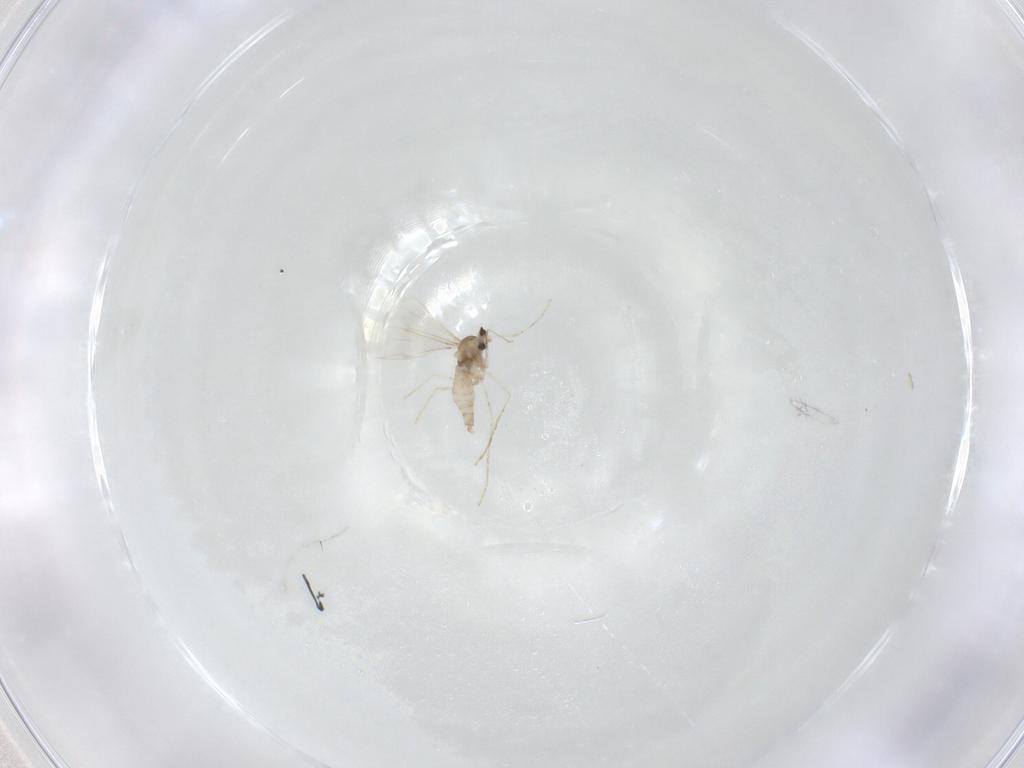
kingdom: Animalia
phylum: Arthropoda
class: Insecta
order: Diptera
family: Cecidomyiidae
